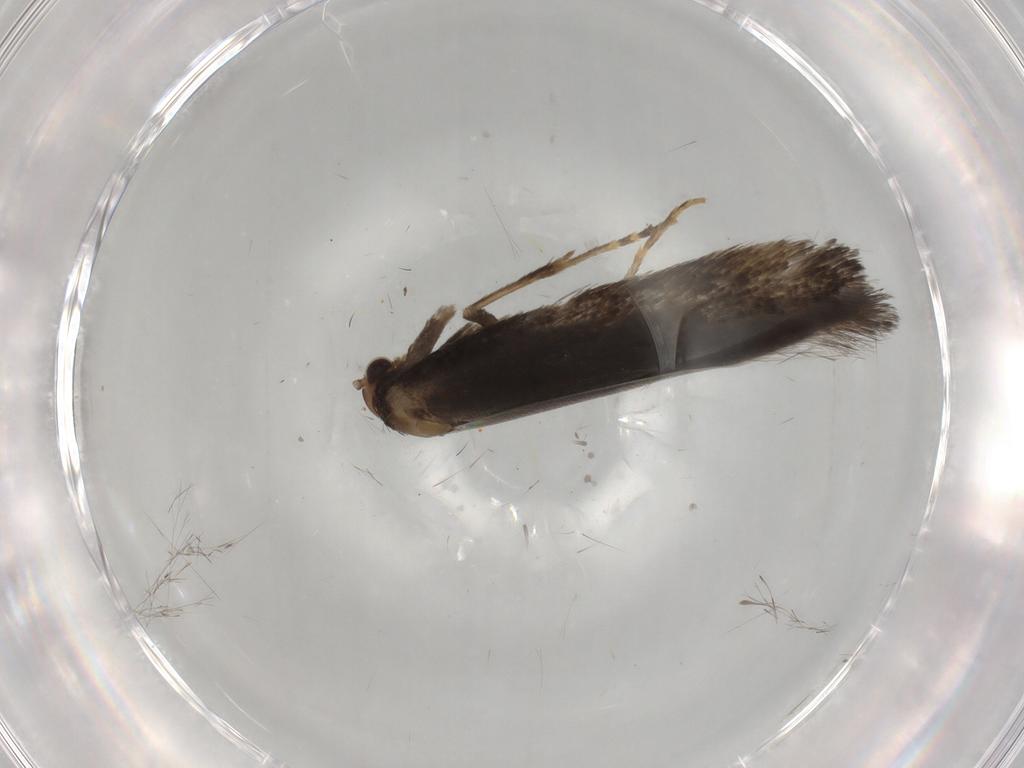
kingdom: Animalia
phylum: Arthropoda
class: Insecta
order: Lepidoptera
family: Elachistidae
